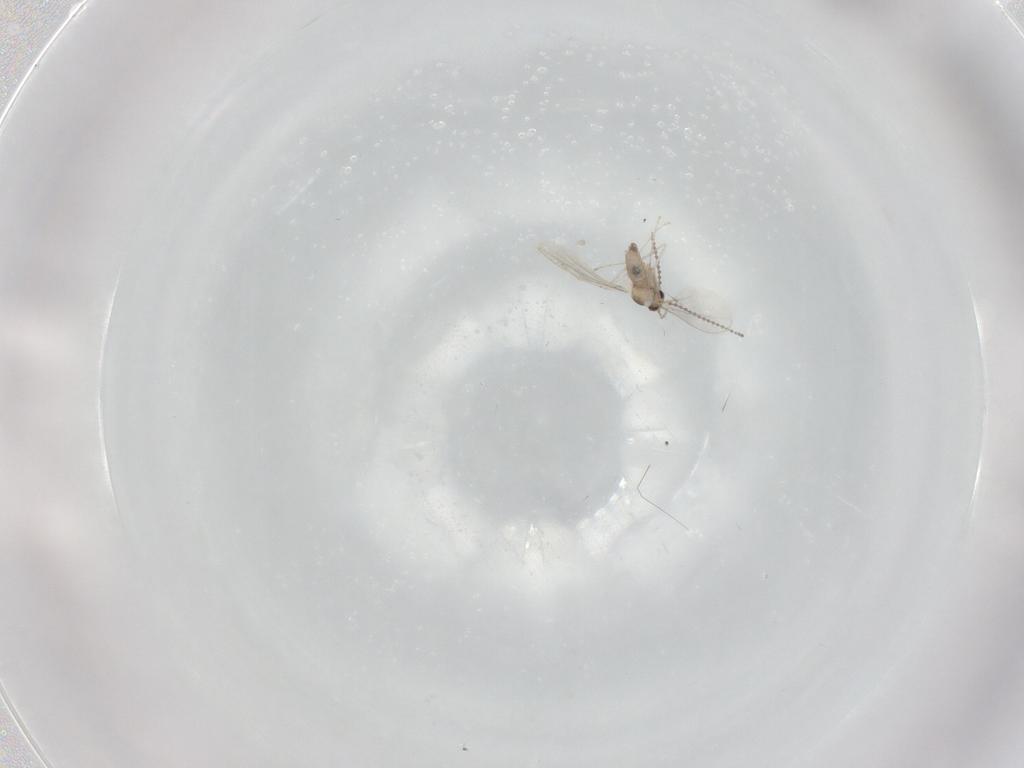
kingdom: Animalia
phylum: Arthropoda
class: Insecta
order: Diptera
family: Cecidomyiidae
